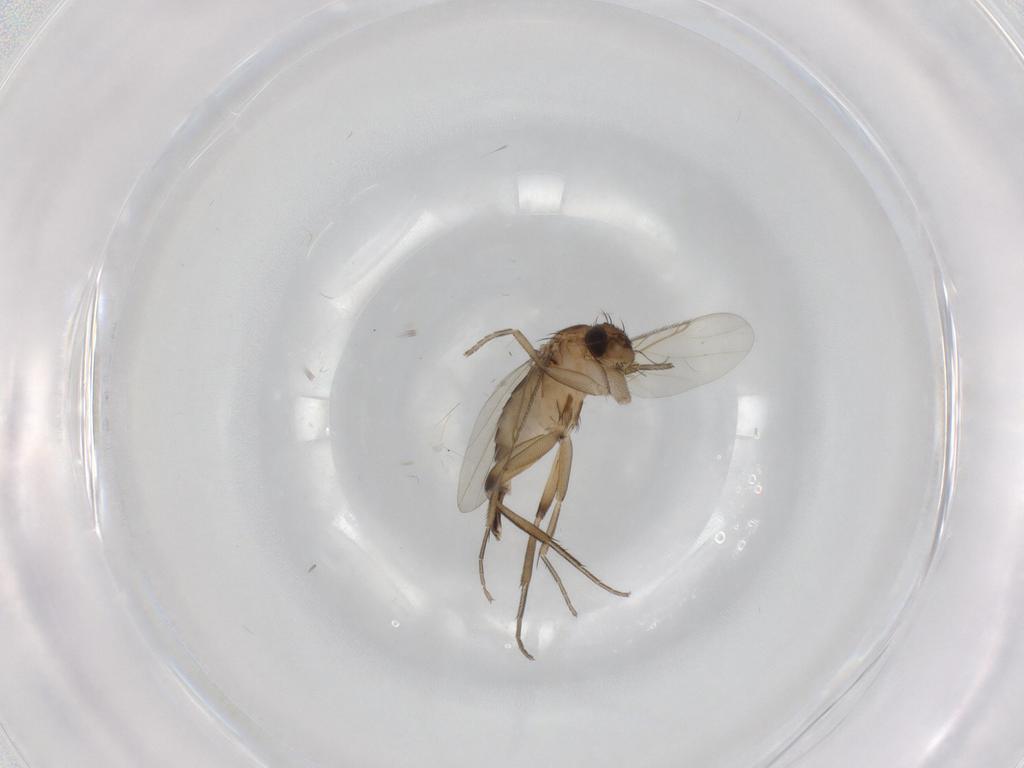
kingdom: Animalia
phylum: Arthropoda
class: Insecta
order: Diptera
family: Phoridae
